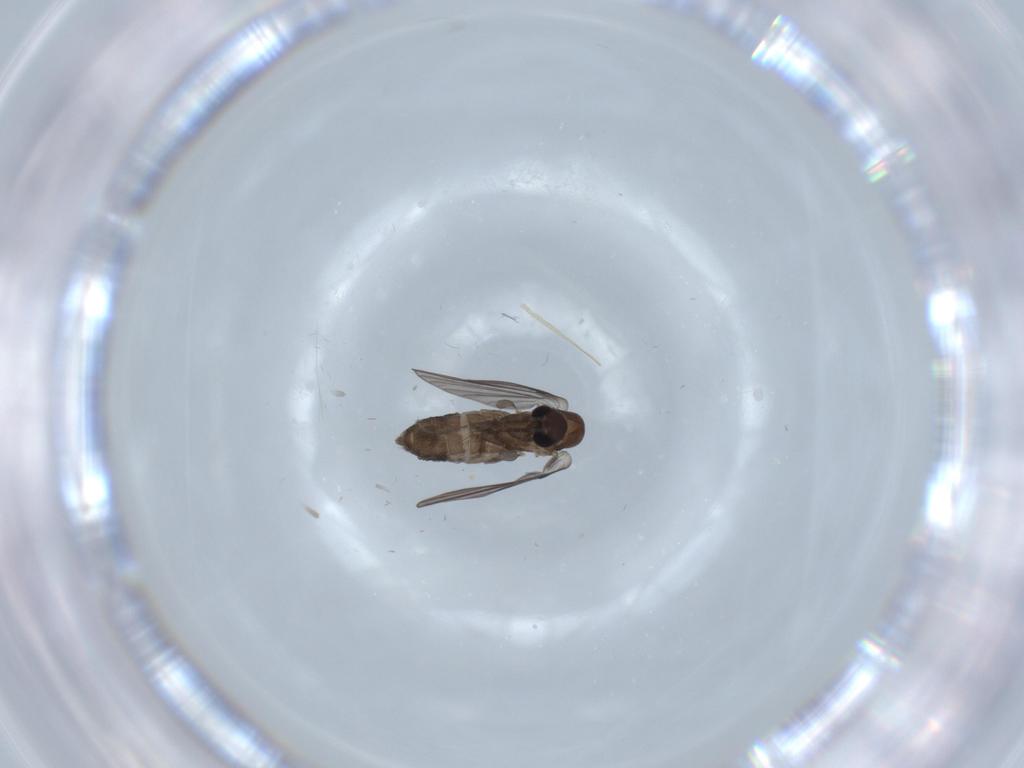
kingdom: Animalia
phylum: Arthropoda
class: Insecta
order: Diptera
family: Psychodidae
